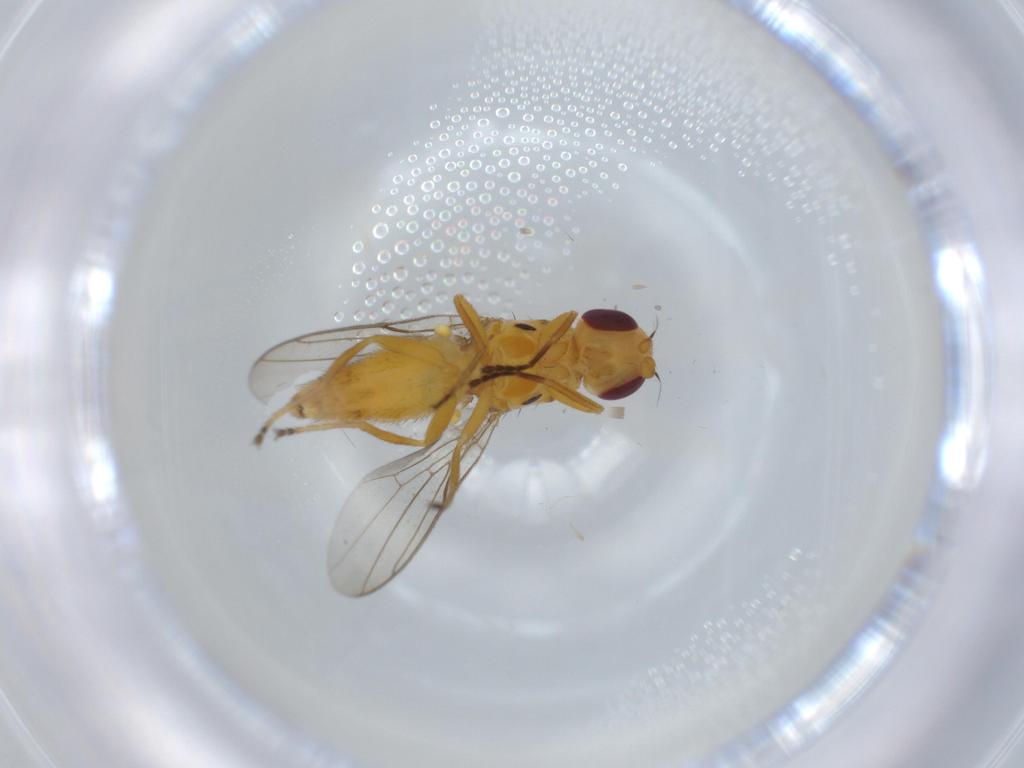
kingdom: Animalia
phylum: Arthropoda
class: Insecta
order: Diptera
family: Chloropidae
